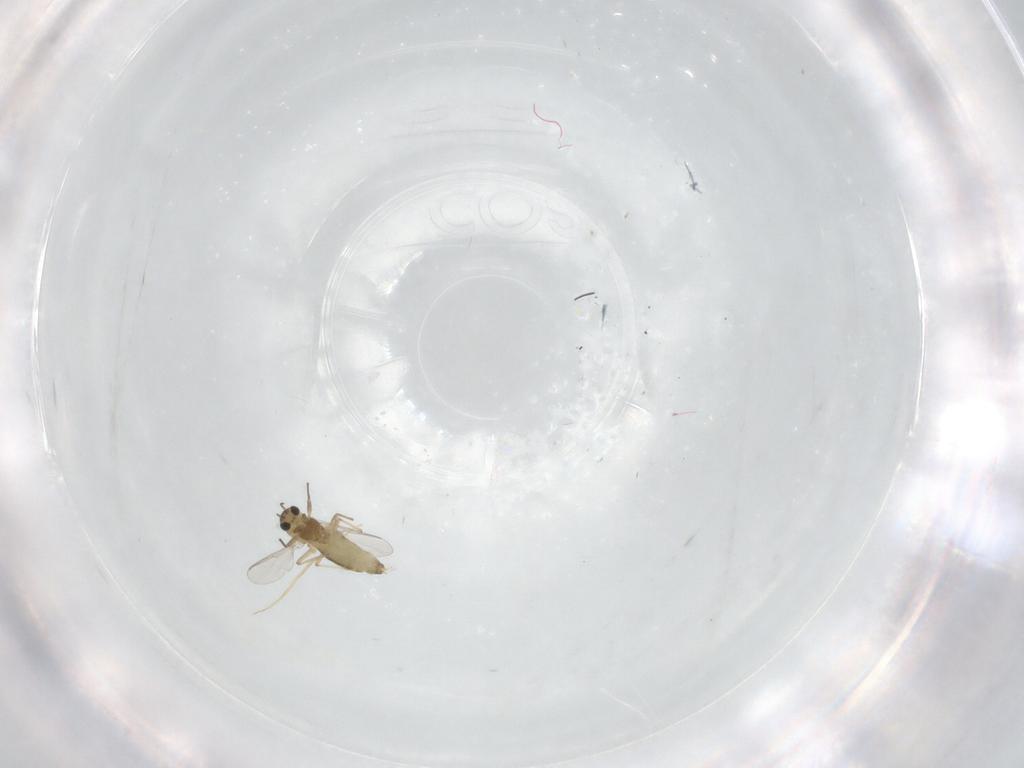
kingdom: Animalia
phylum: Arthropoda
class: Insecta
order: Diptera
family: Chironomidae
